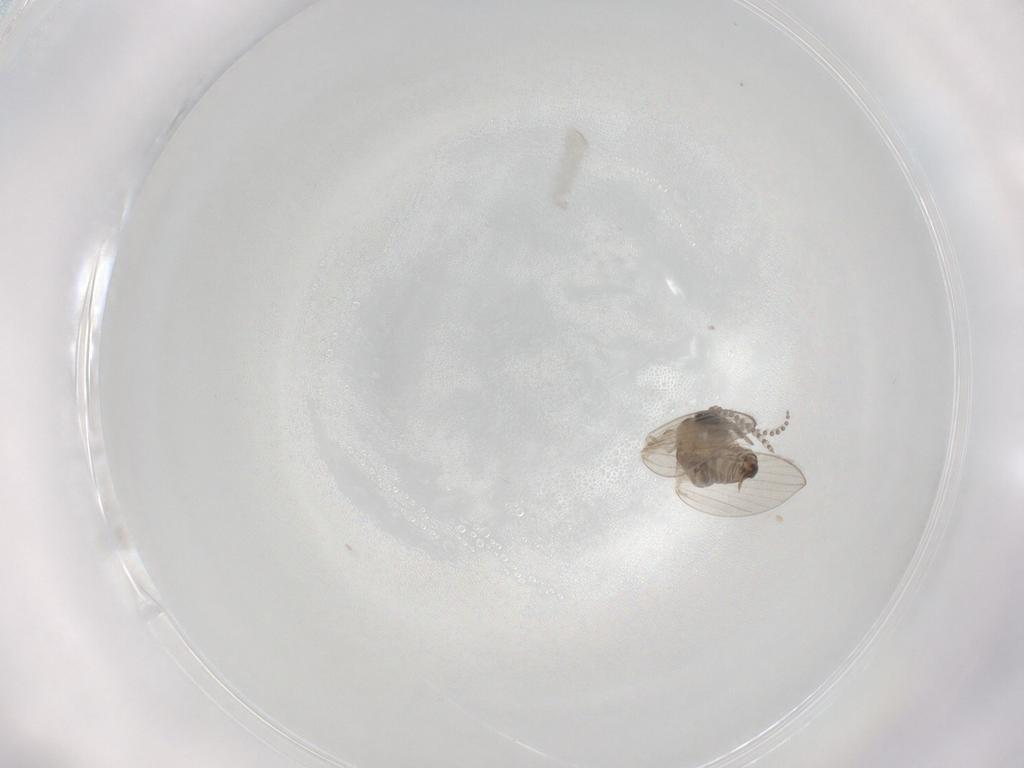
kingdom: Animalia
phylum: Arthropoda
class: Insecta
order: Diptera
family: Psychodidae
